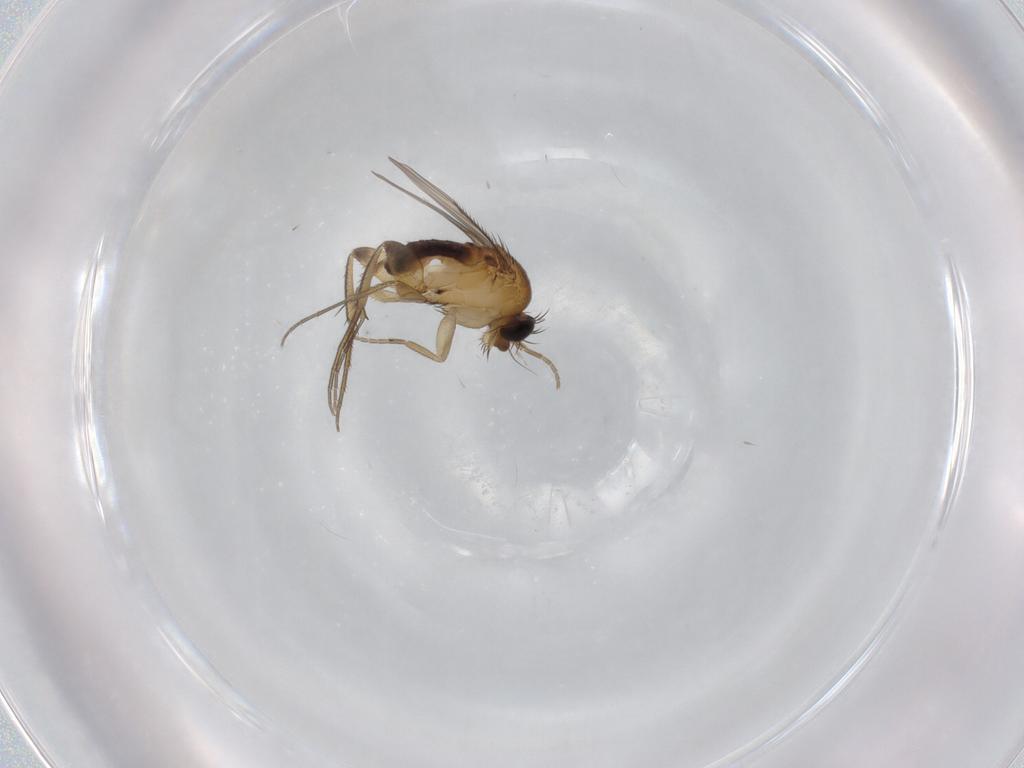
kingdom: Animalia
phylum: Arthropoda
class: Insecta
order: Diptera
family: Phoridae
